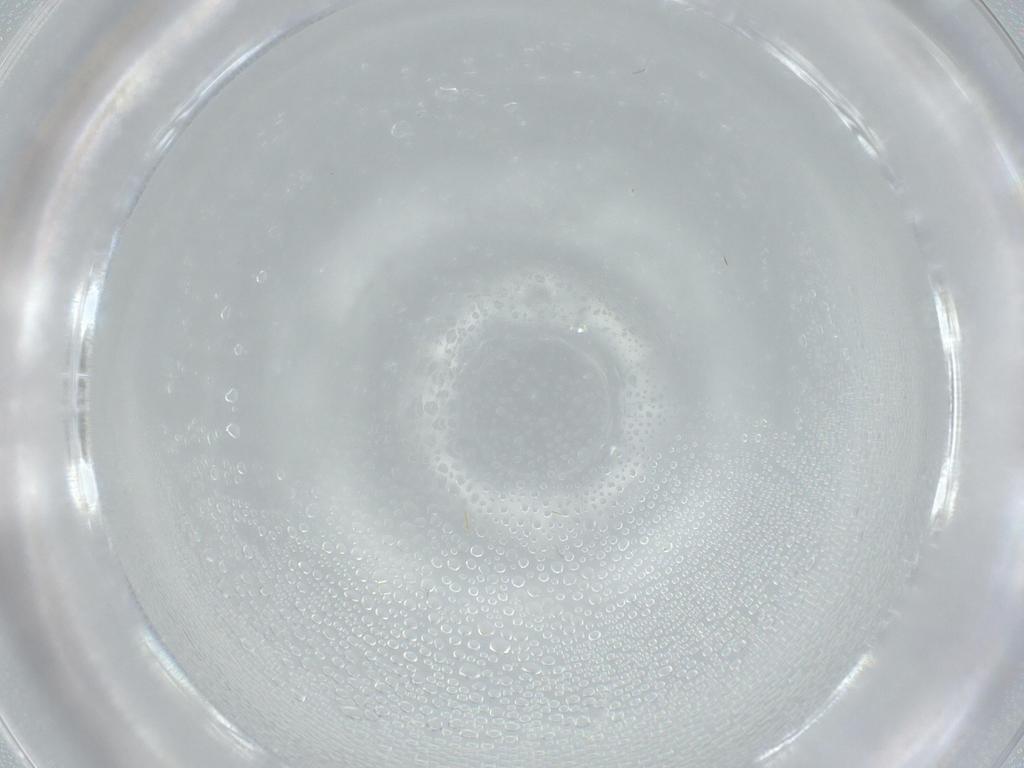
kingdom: Animalia
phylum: Arthropoda
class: Insecta
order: Hemiptera
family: Aleyrodidae
